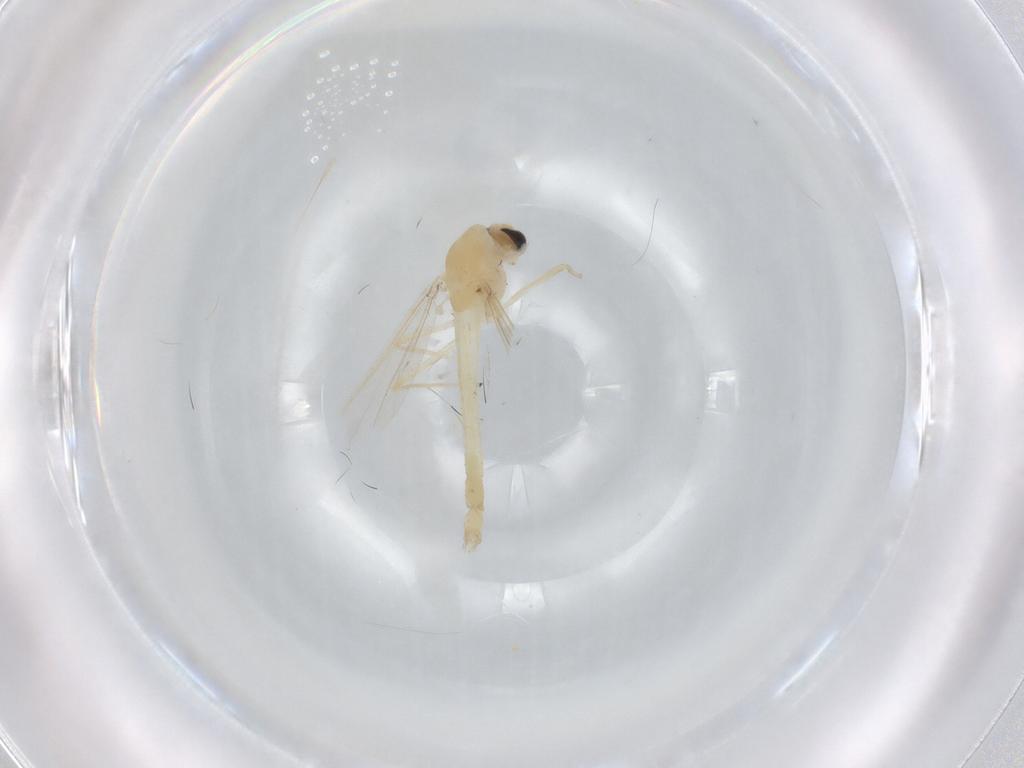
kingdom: Animalia
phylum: Arthropoda
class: Insecta
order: Diptera
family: Chironomidae
